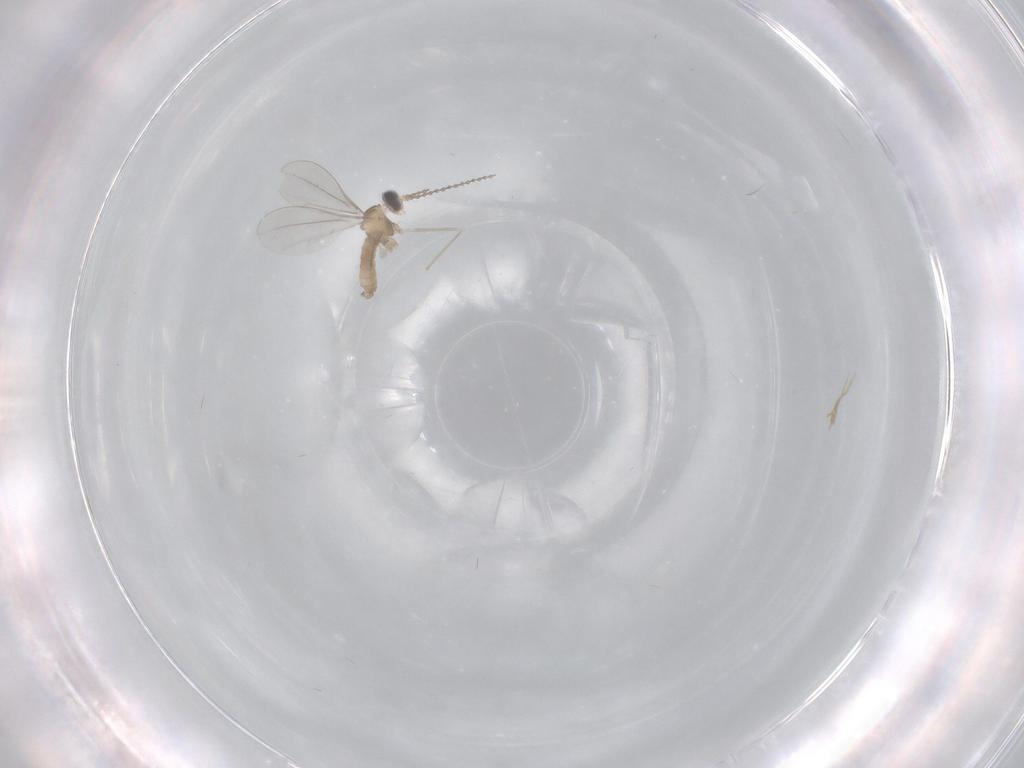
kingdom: Animalia
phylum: Arthropoda
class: Insecta
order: Diptera
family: Cecidomyiidae
